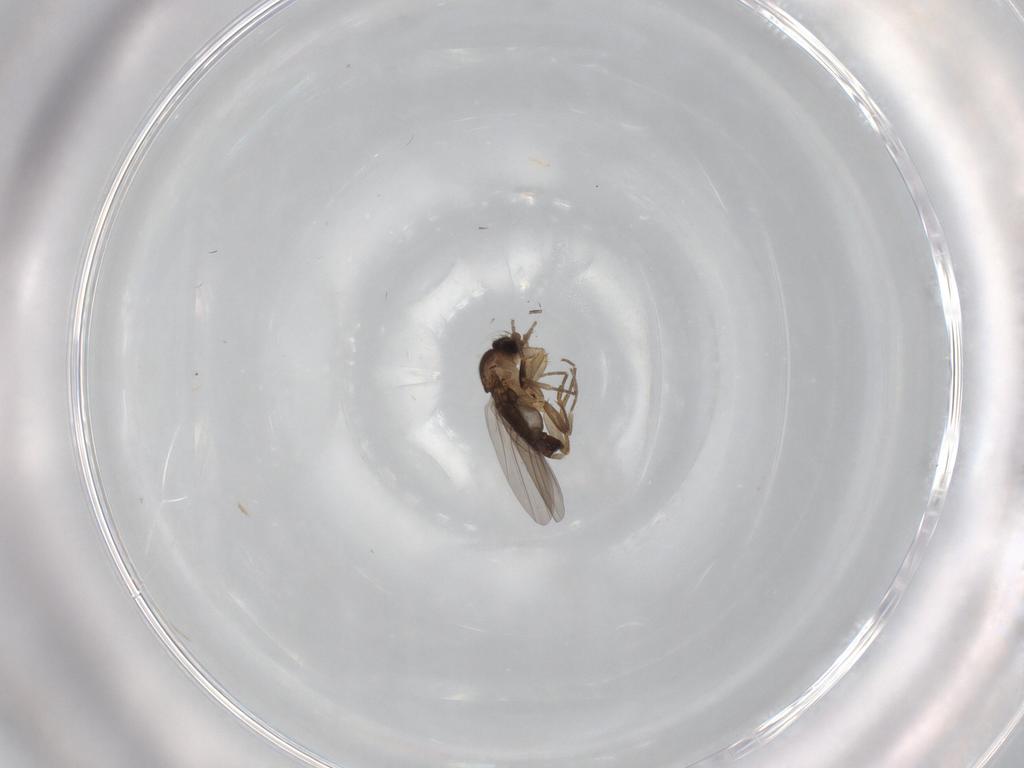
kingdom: Animalia
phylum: Arthropoda
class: Insecta
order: Diptera
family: Phoridae
